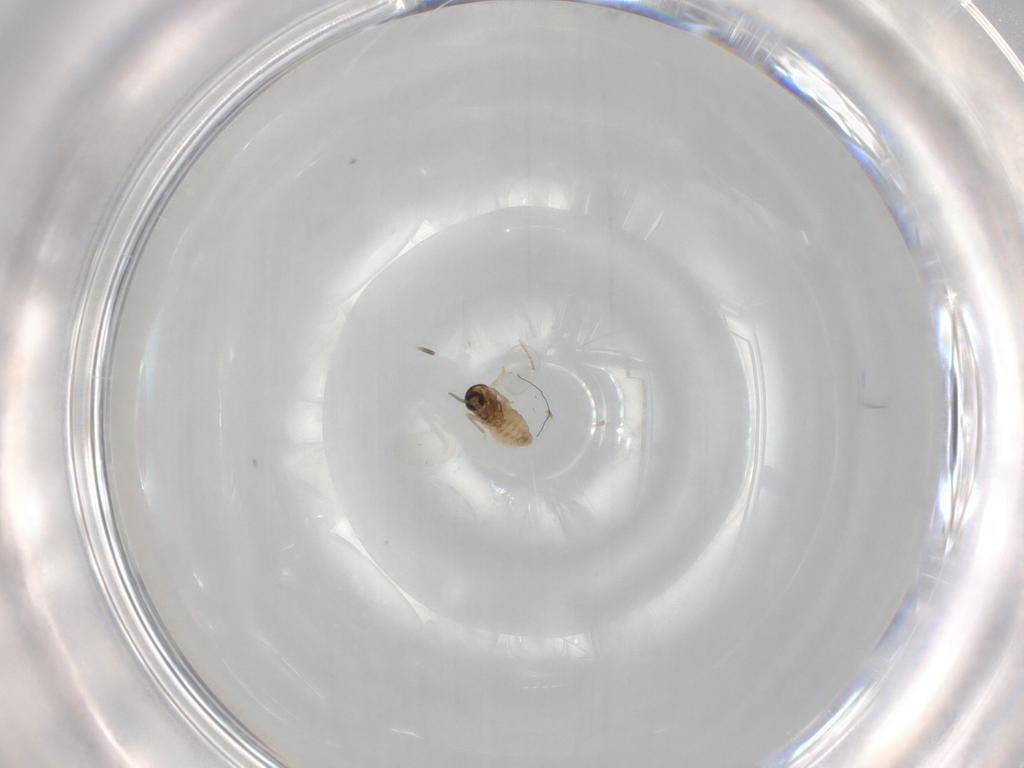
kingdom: Animalia
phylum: Arthropoda
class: Insecta
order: Diptera
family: Cecidomyiidae
